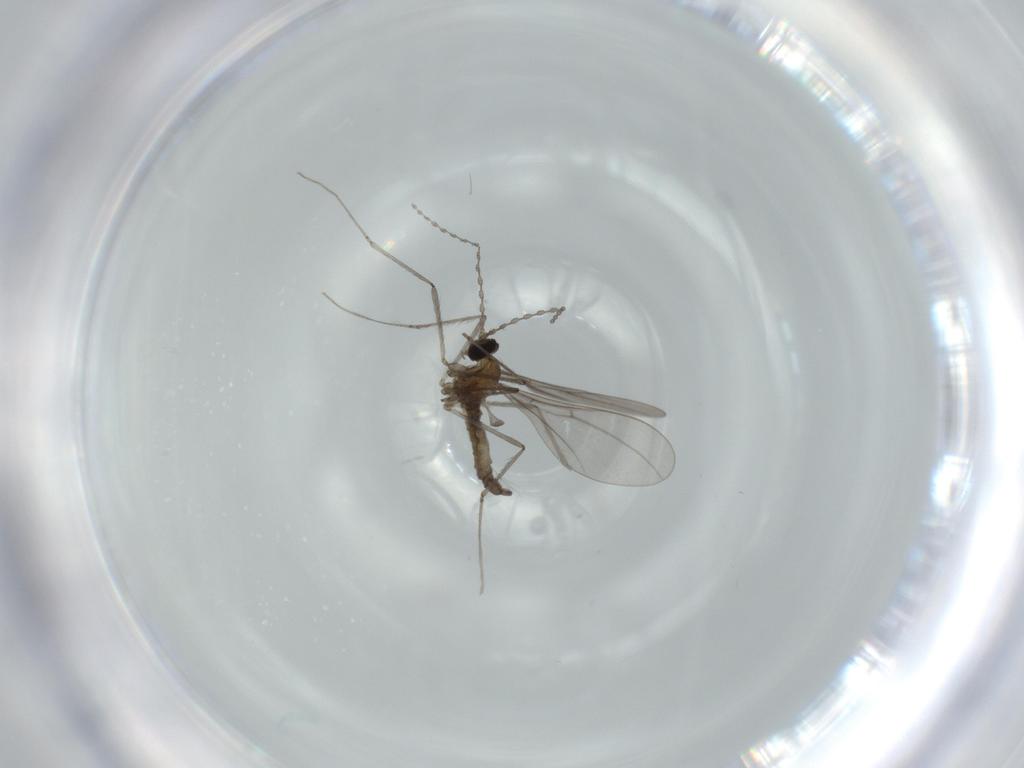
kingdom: Animalia
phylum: Arthropoda
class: Insecta
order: Diptera
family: Cecidomyiidae
